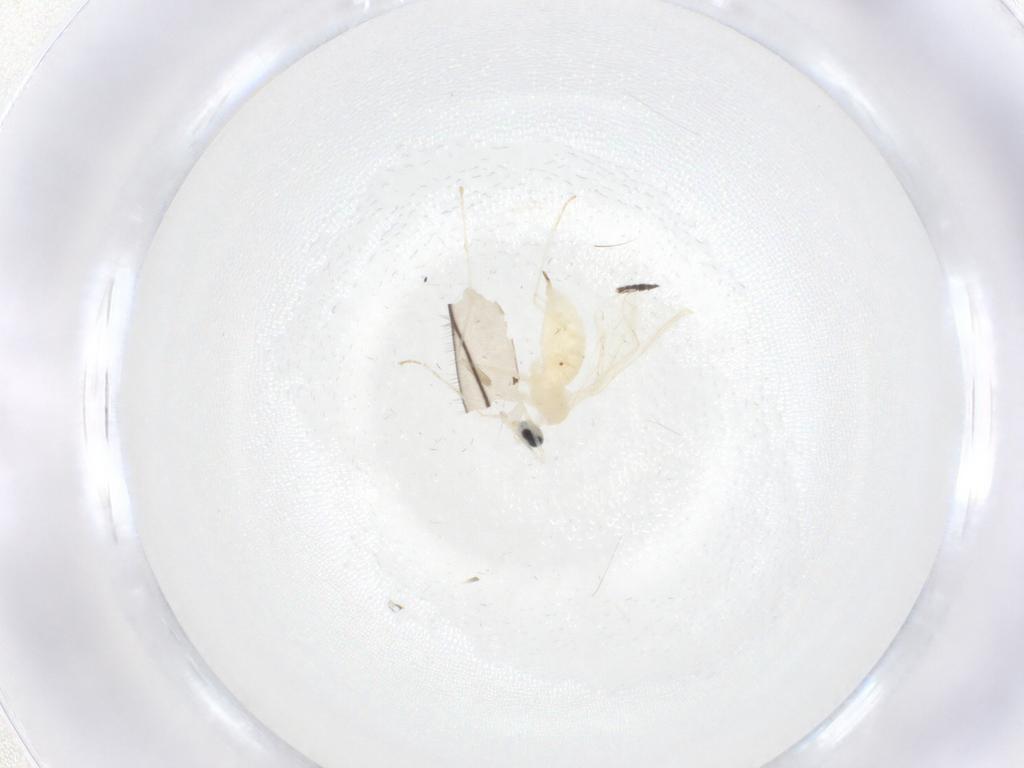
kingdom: Animalia
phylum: Arthropoda
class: Insecta
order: Diptera
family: Cecidomyiidae
